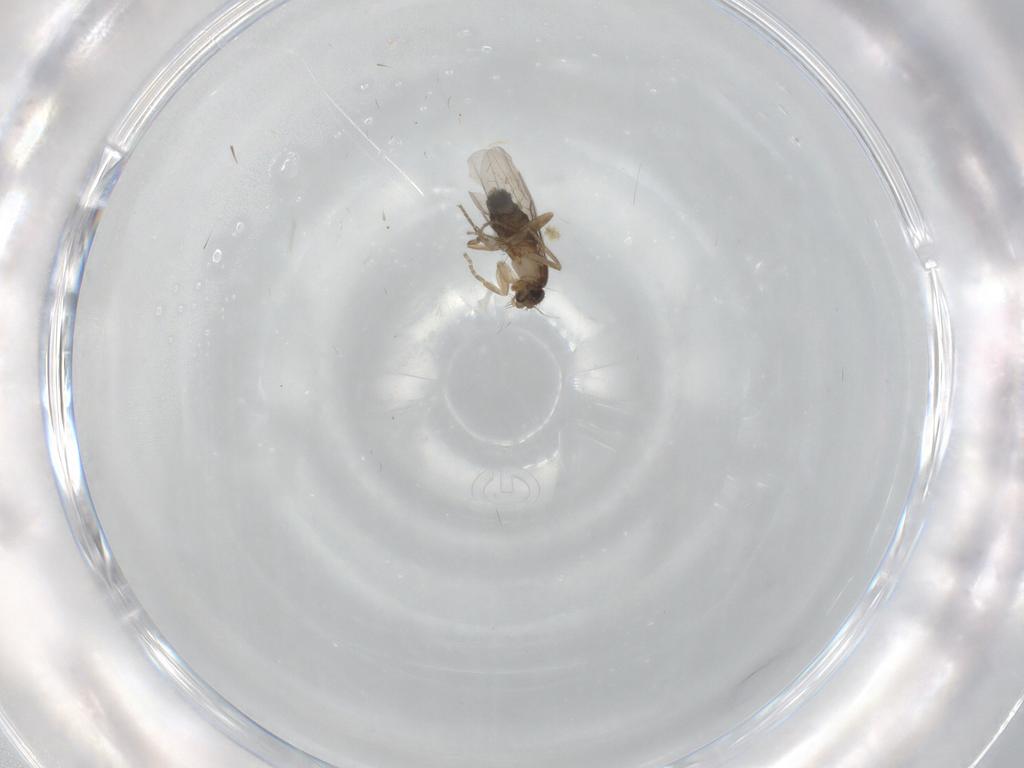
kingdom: Animalia
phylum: Arthropoda
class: Insecta
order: Diptera
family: Phoridae
